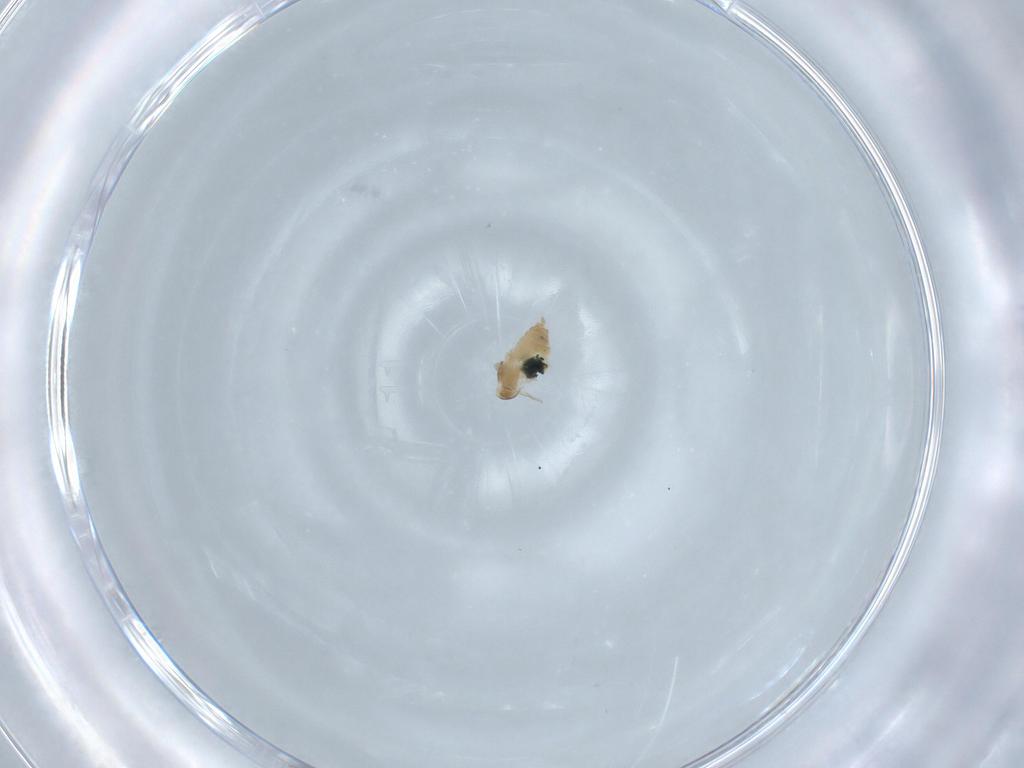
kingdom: Animalia
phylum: Arthropoda
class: Insecta
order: Diptera
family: Cecidomyiidae
